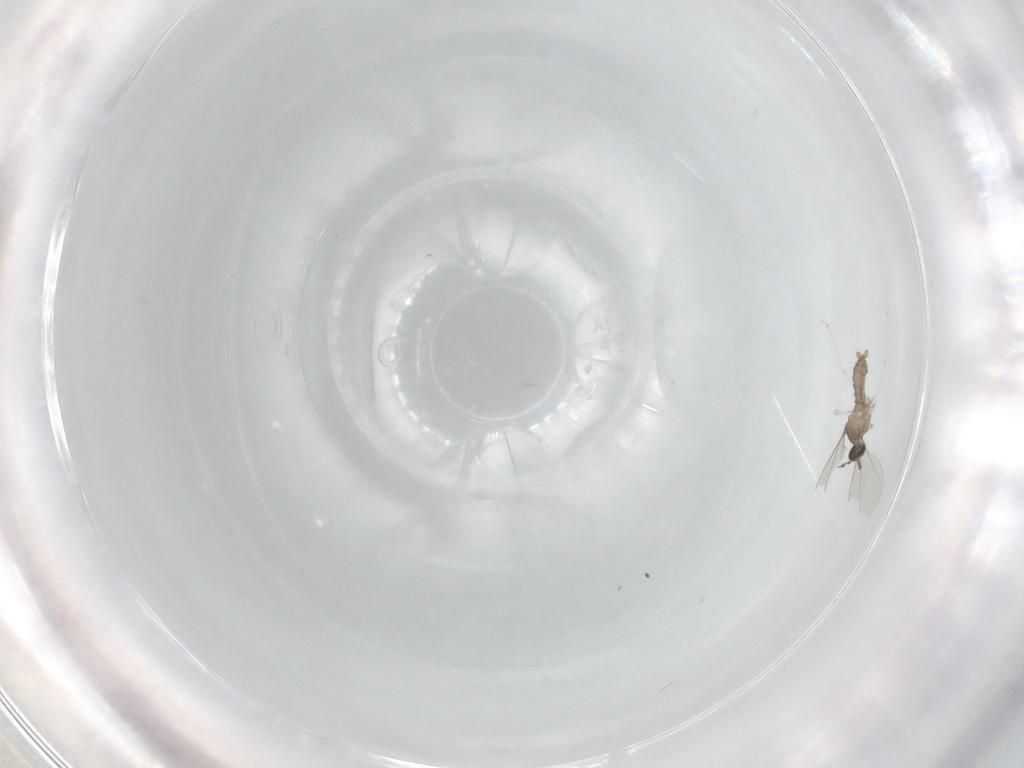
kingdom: Animalia
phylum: Arthropoda
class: Insecta
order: Diptera
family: Cecidomyiidae
